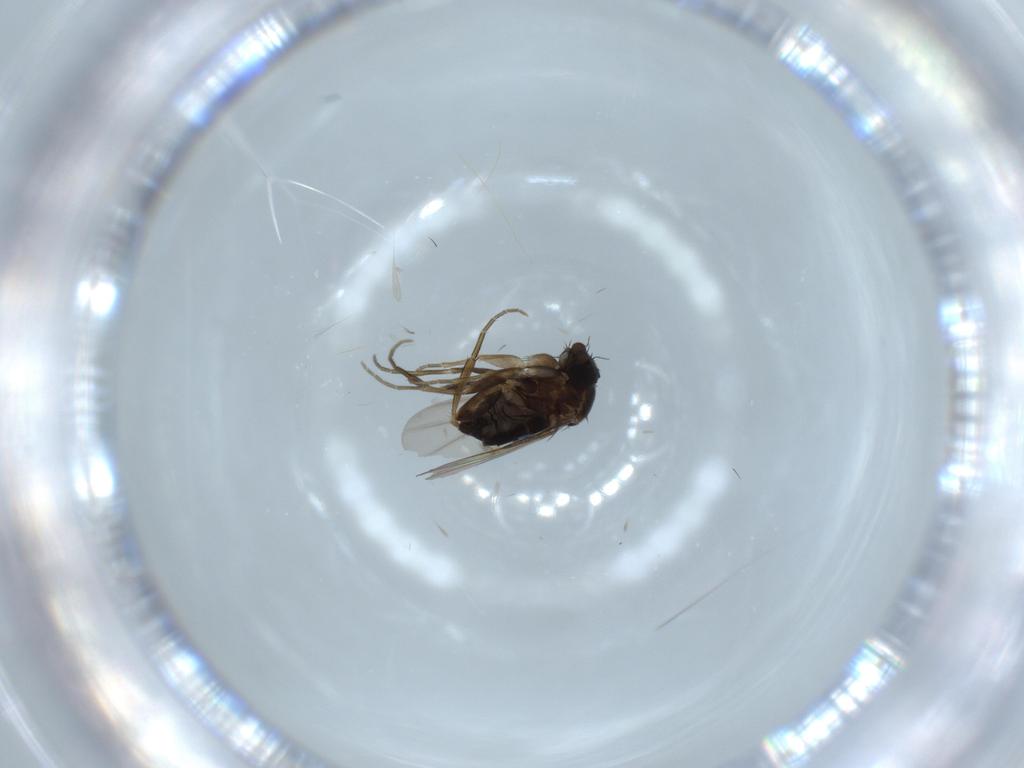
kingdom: Animalia
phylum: Arthropoda
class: Insecta
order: Diptera
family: Phoridae
